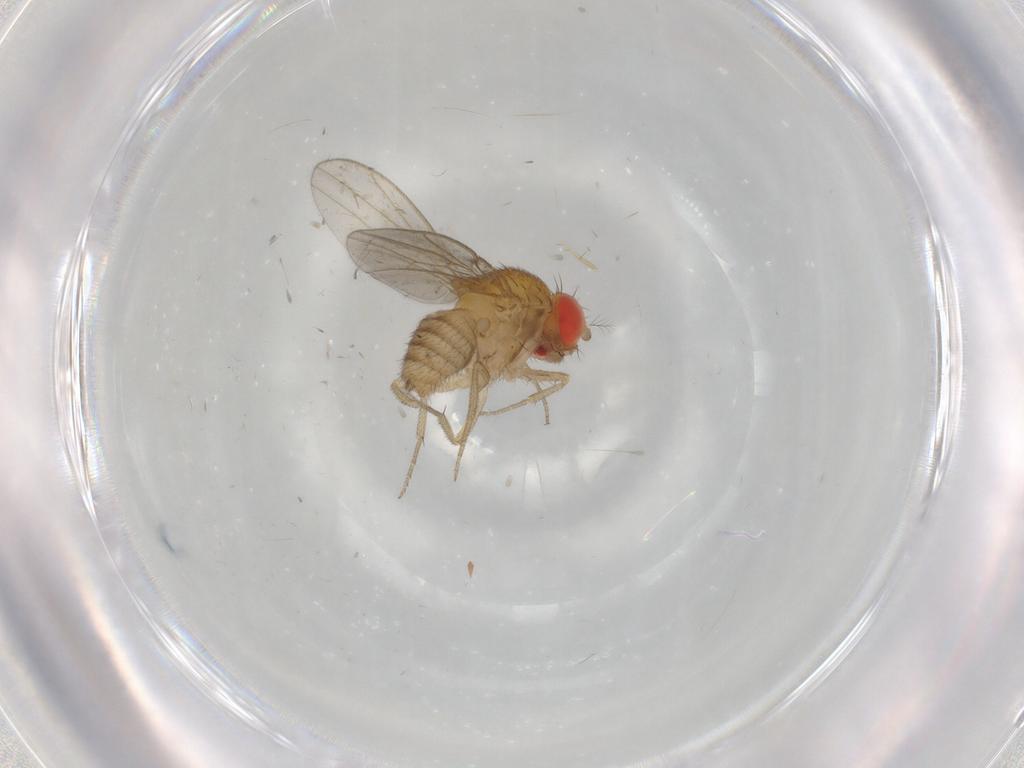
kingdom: Animalia
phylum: Arthropoda
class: Insecta
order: Diptera
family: Drosophilidae
